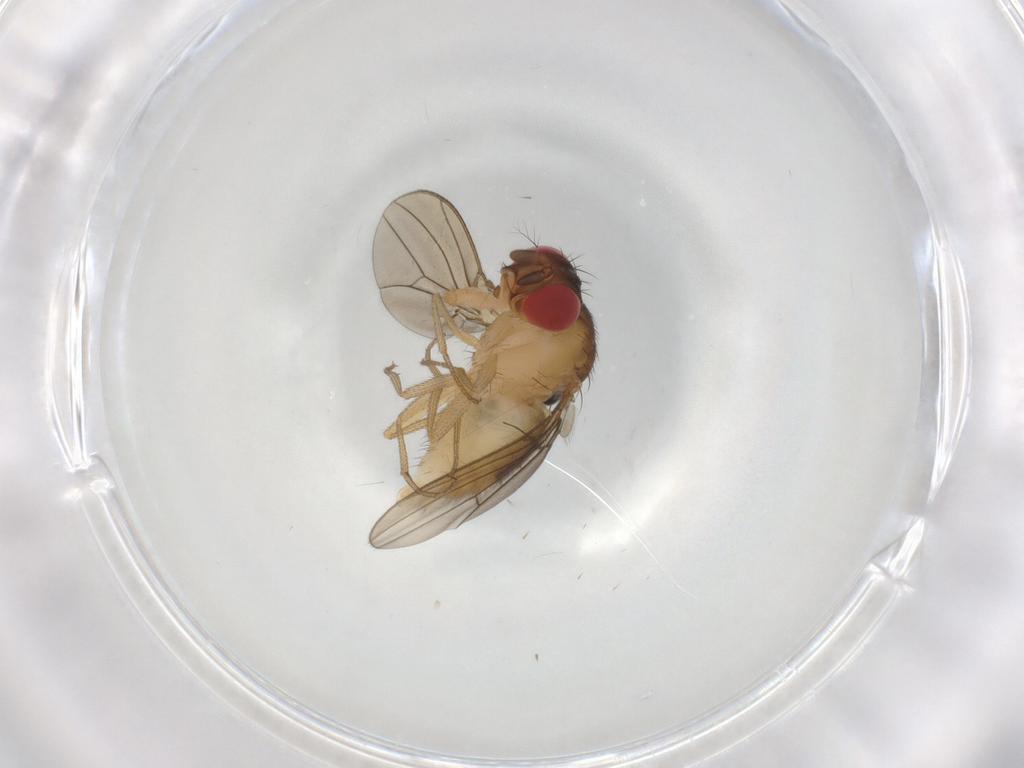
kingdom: Animalia
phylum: Arthropoda
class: Insecta
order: Diptera
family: Drosophilidae
